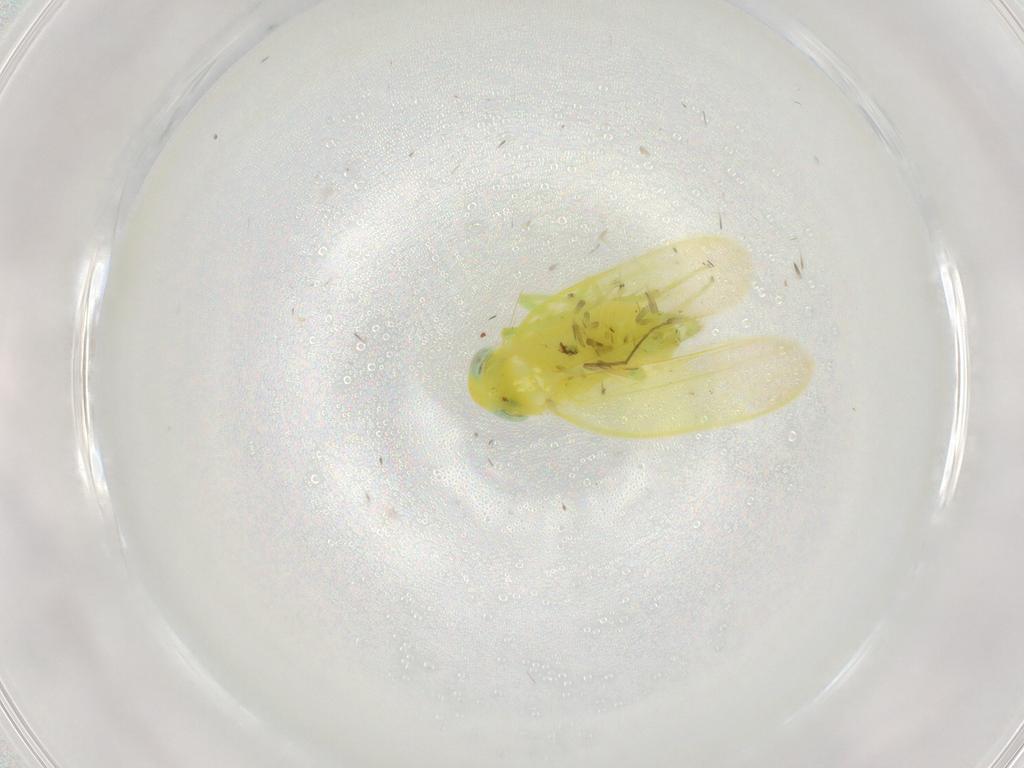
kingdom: Animalia
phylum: Arthropoda
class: Insecta
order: Hemiptera
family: Cicadellidae
